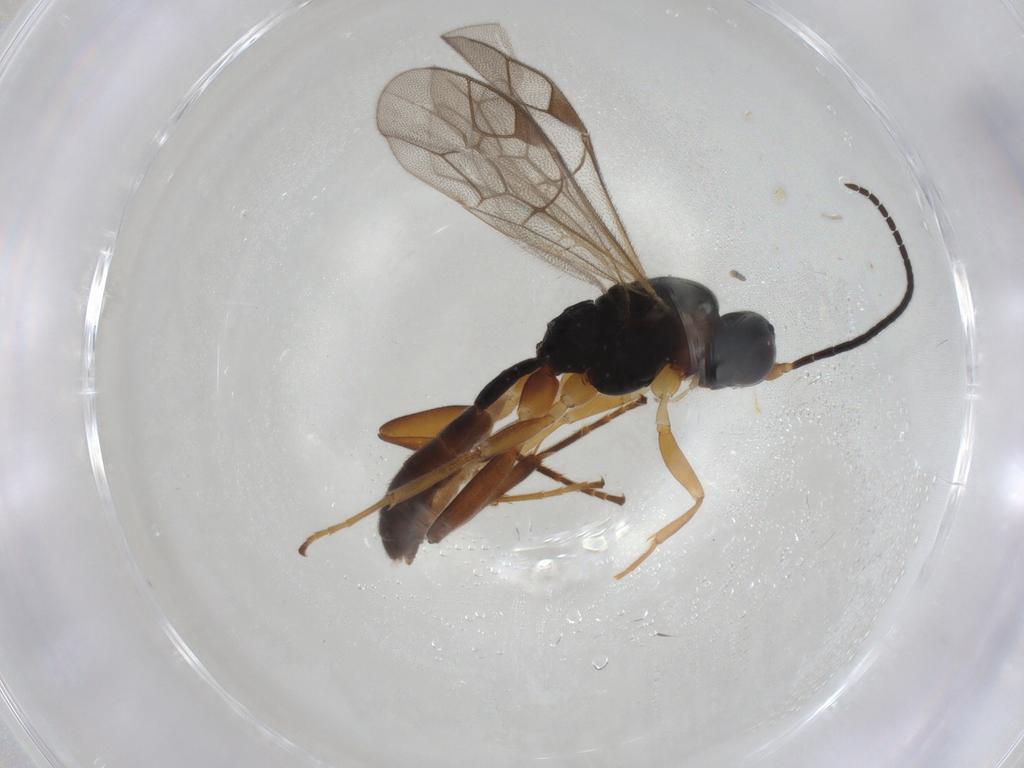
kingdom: Animalia
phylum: Arthropoda
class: Insecta
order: Hymenoptera
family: Ichneumonidae
